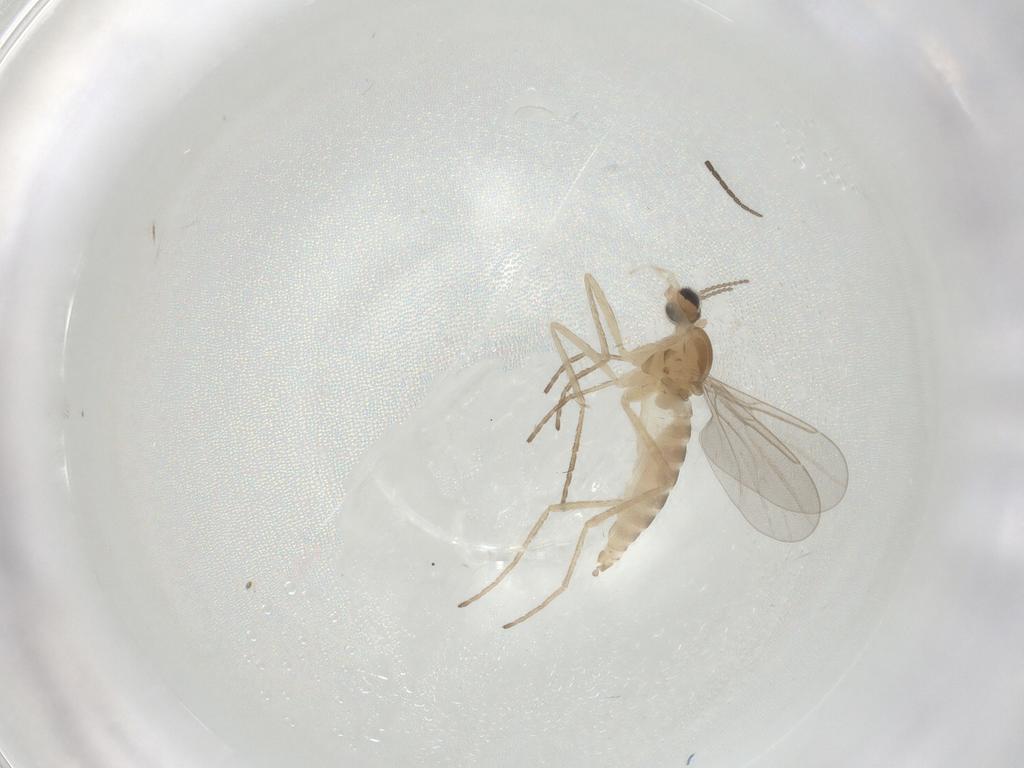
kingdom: Animalia
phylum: Arthropoda
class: Insecta
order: Diptera
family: Cecidomyiidae
